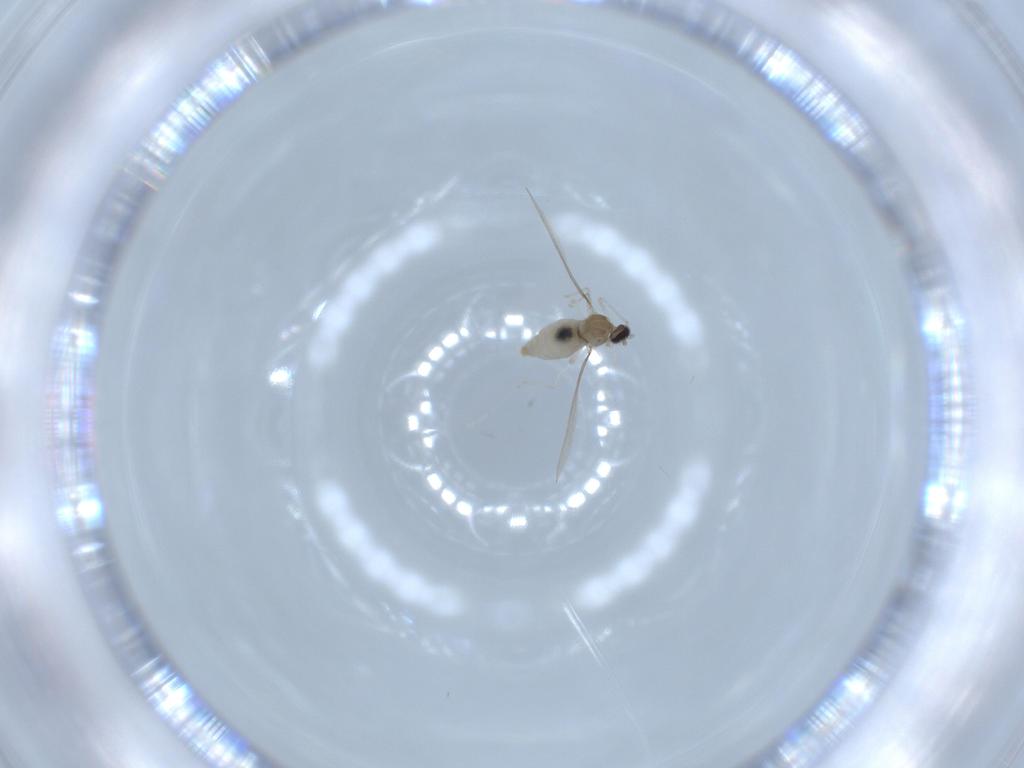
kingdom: Animalia
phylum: Arthropoda
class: Insecta
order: Diptera
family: Cecidomyiidae
